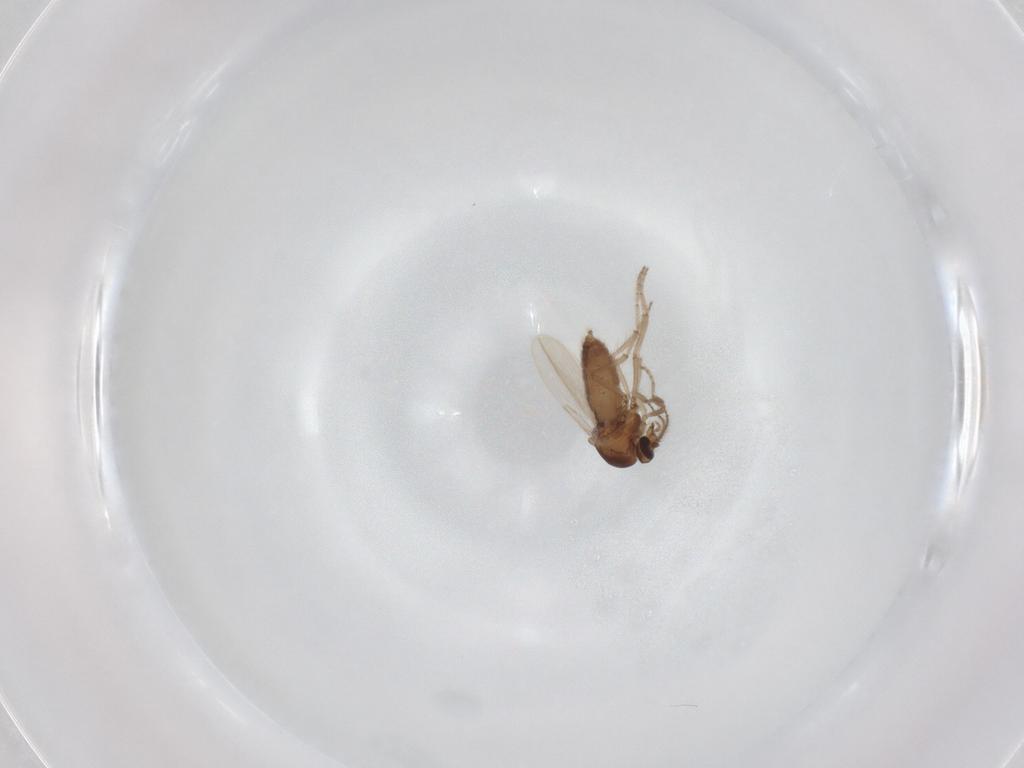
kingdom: Animalia
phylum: Arthropoda
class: Insecta
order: Diptera
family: Ceratopogonidae
